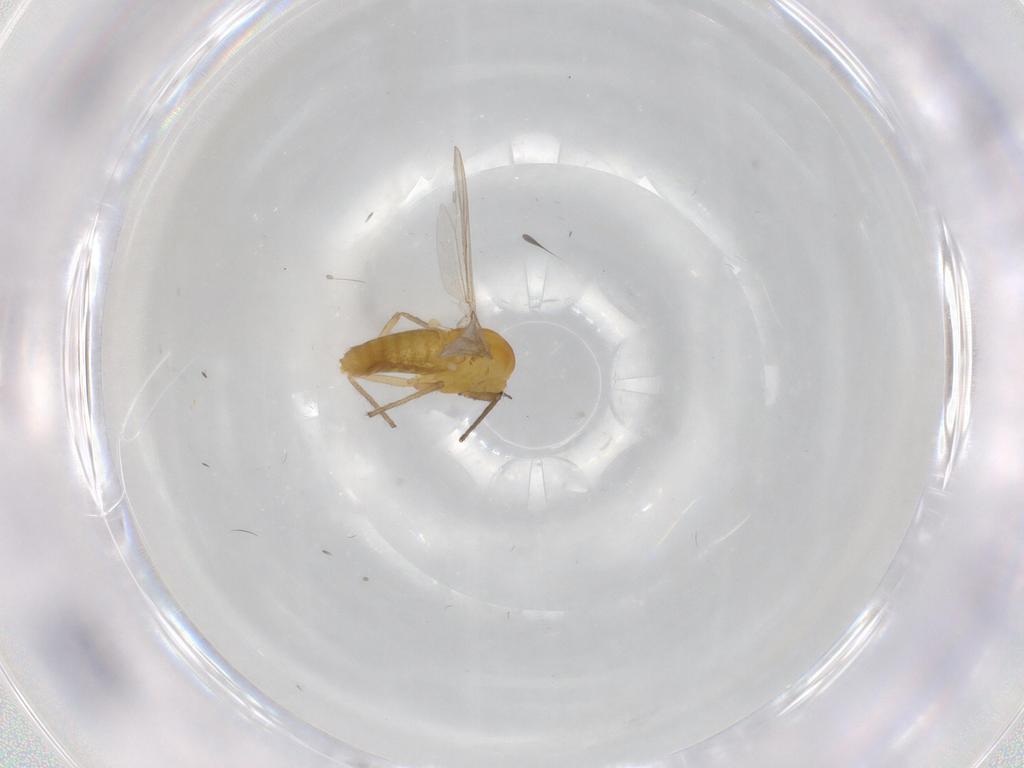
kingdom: Animalia
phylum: Arthropoda
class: Insecta
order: Diptera
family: Chironomidae
